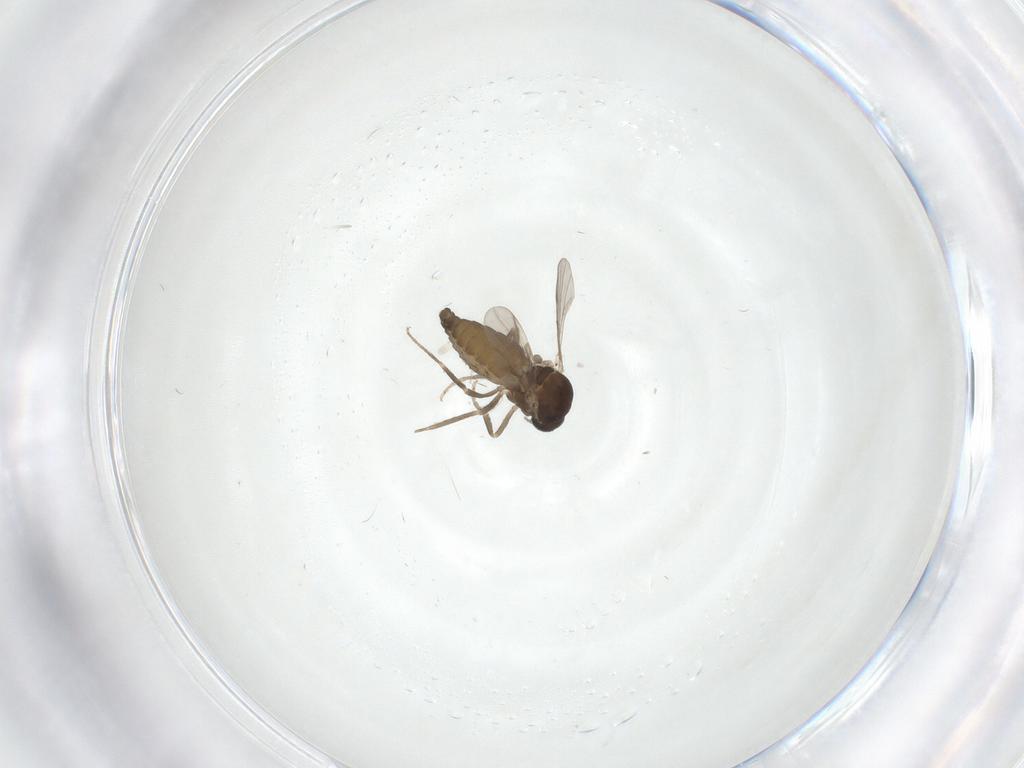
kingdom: Animalia
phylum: Arthropoda
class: Insecta
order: Diptera
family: Ceratopogonidae
